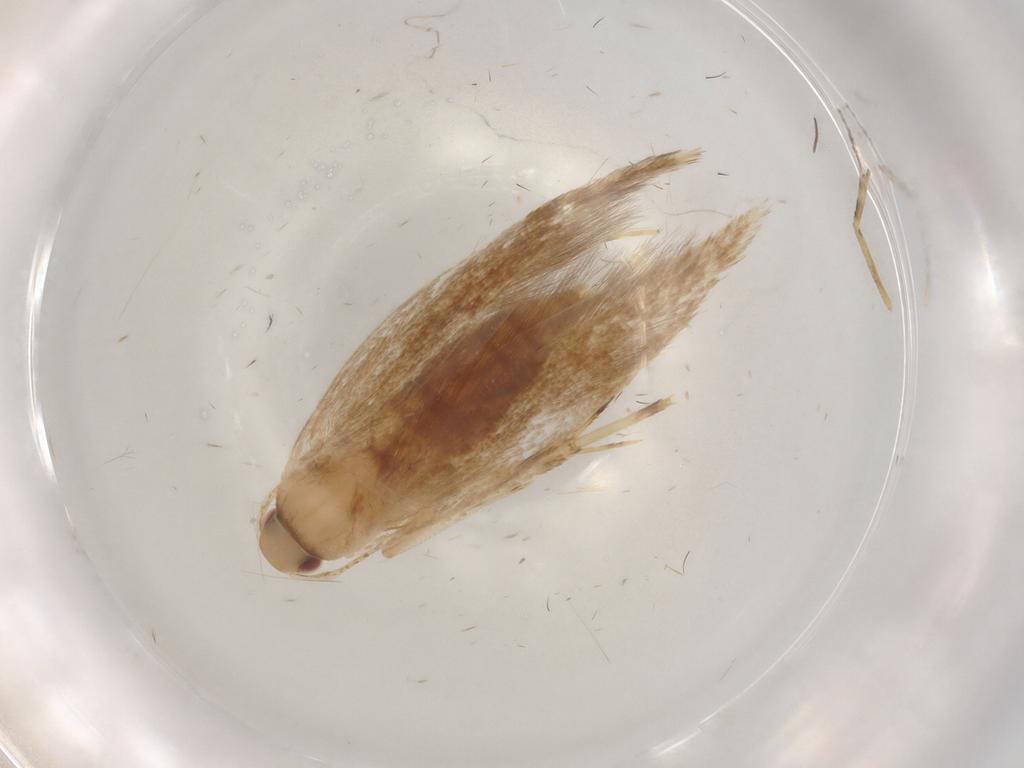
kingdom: Animalia
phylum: Arthropoda
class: Insecta
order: Lepidoptera
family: Cosmopterigidae
